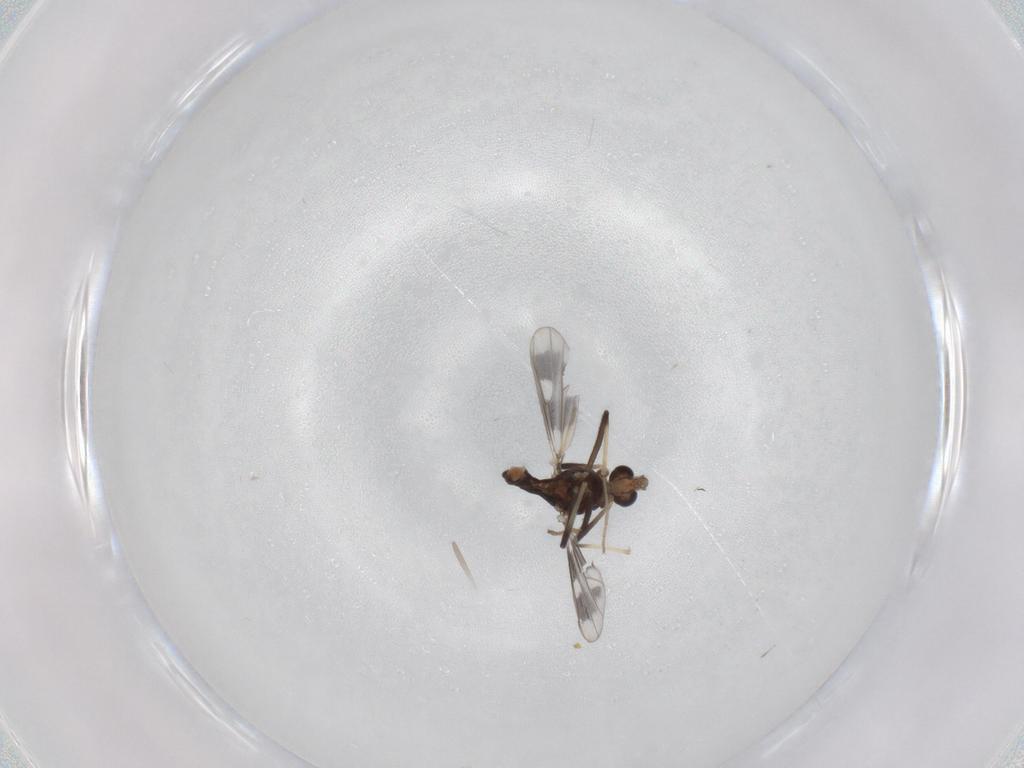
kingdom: Animalia
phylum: Arthropoda
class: Insecta
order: Diptera
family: Chironomidae
